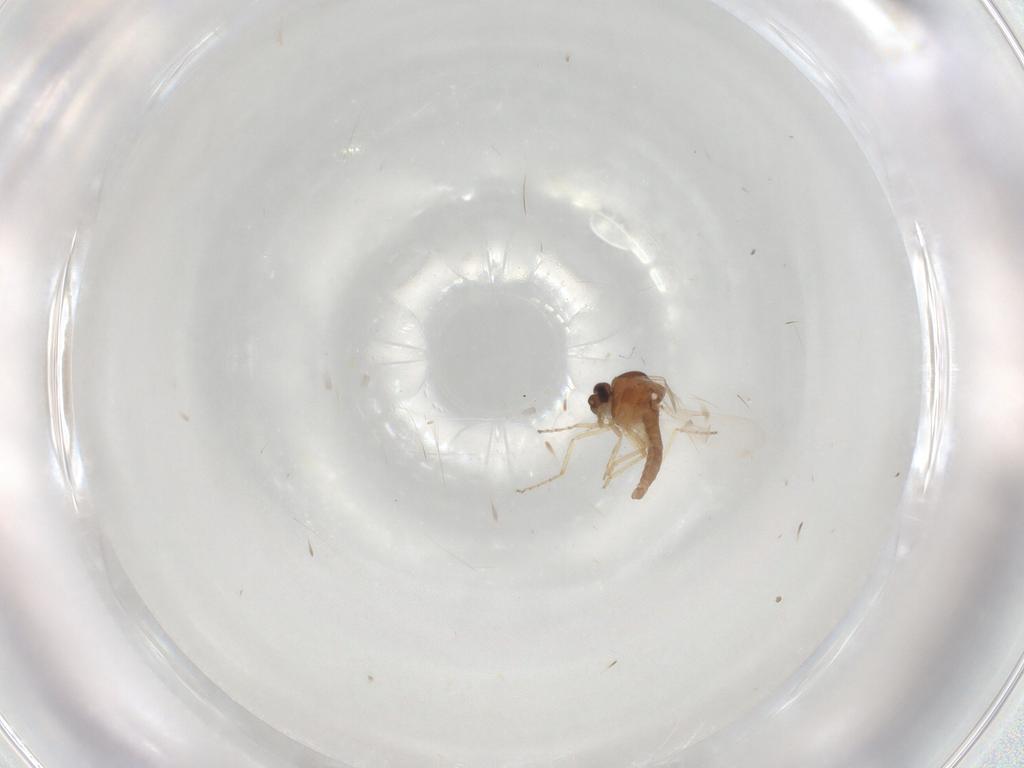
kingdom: Animalia
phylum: Arthropoda
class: Insecta
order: Diptera
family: Ceratopogonidae
